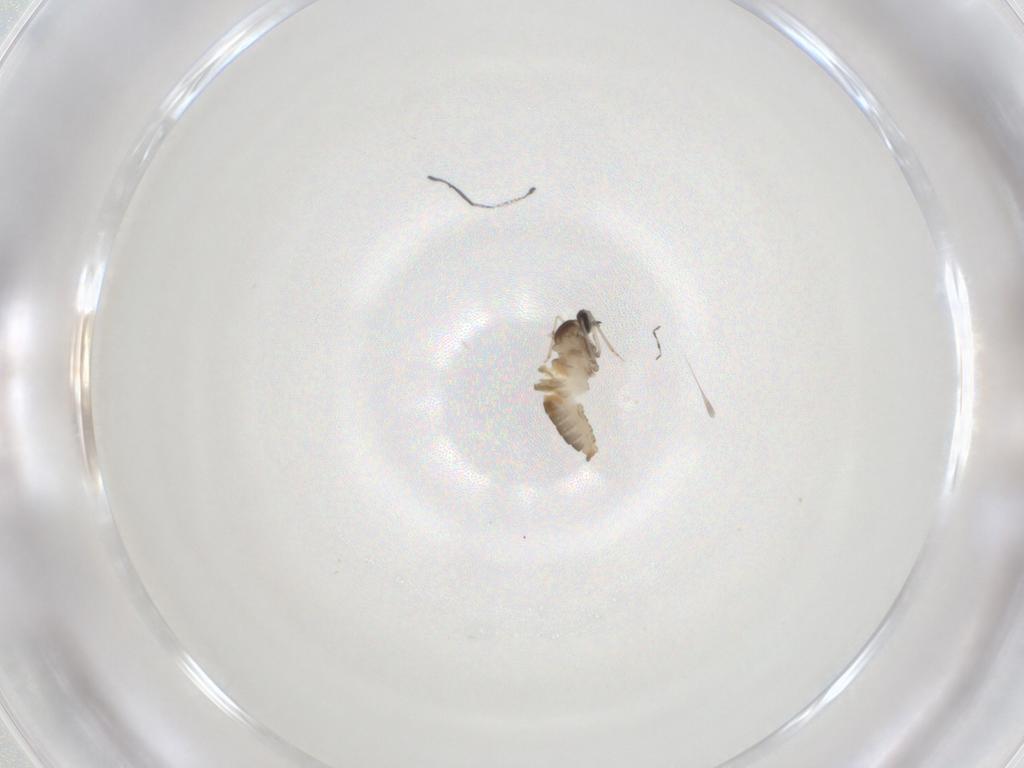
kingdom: Animalia
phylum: Arthropoda
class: Insecta
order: Diptera
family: Cecidomyiidae
